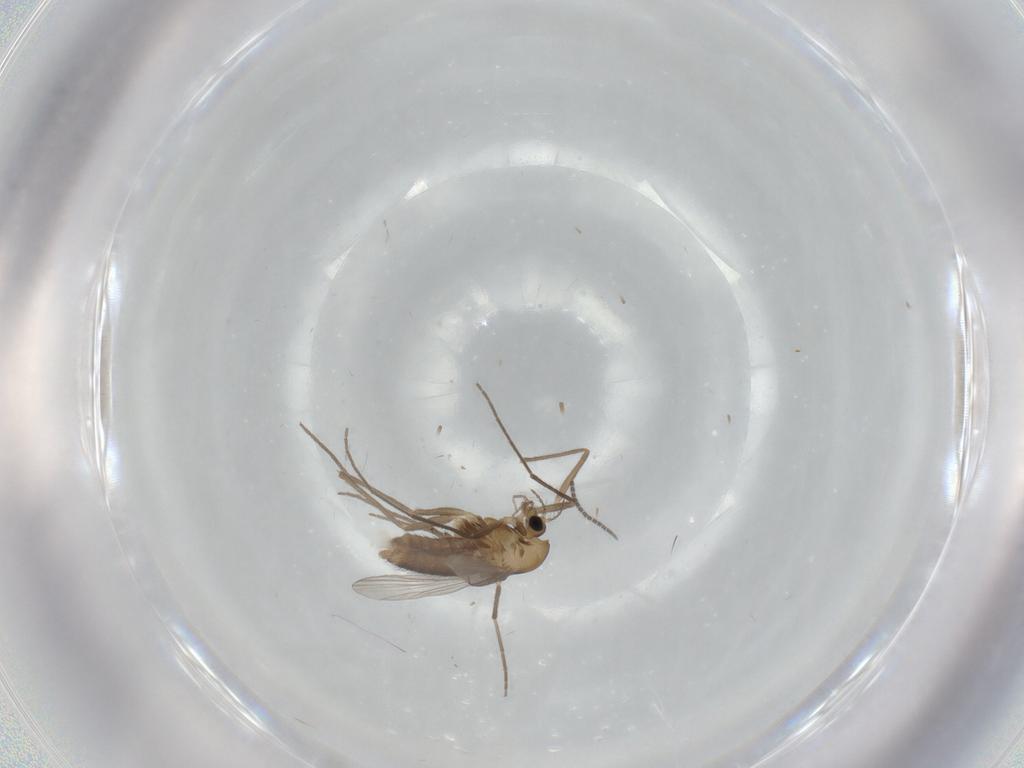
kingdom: Animalia
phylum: Arthropoda
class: Insecta
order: Diptera
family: Chironomidae
